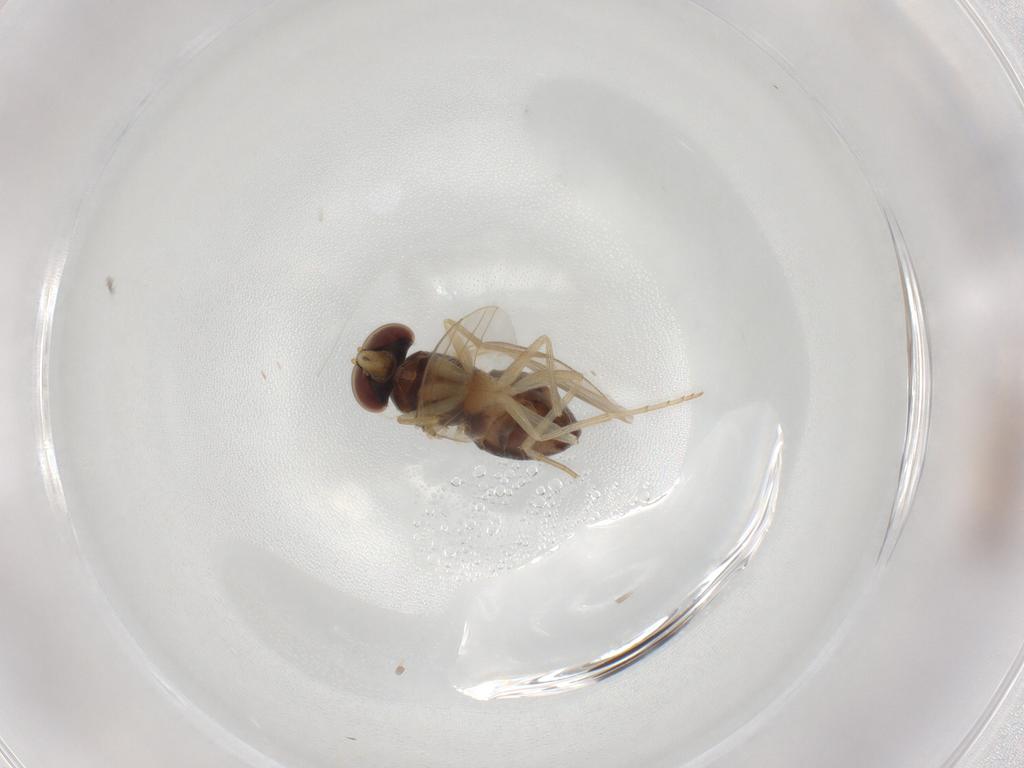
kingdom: Animalia
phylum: Arthropoda
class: Insecta
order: Diptera
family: Dolichopodidae
